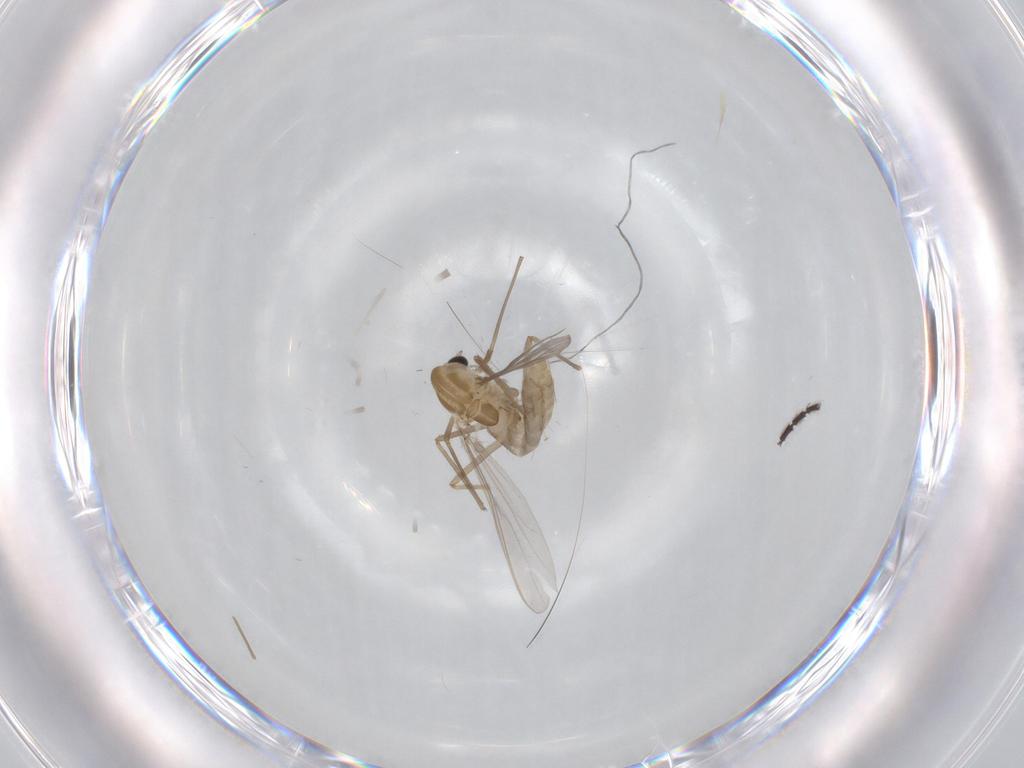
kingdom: Animalia
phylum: Arthropoda
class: Insecta
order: Diptera
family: Chironomidae
